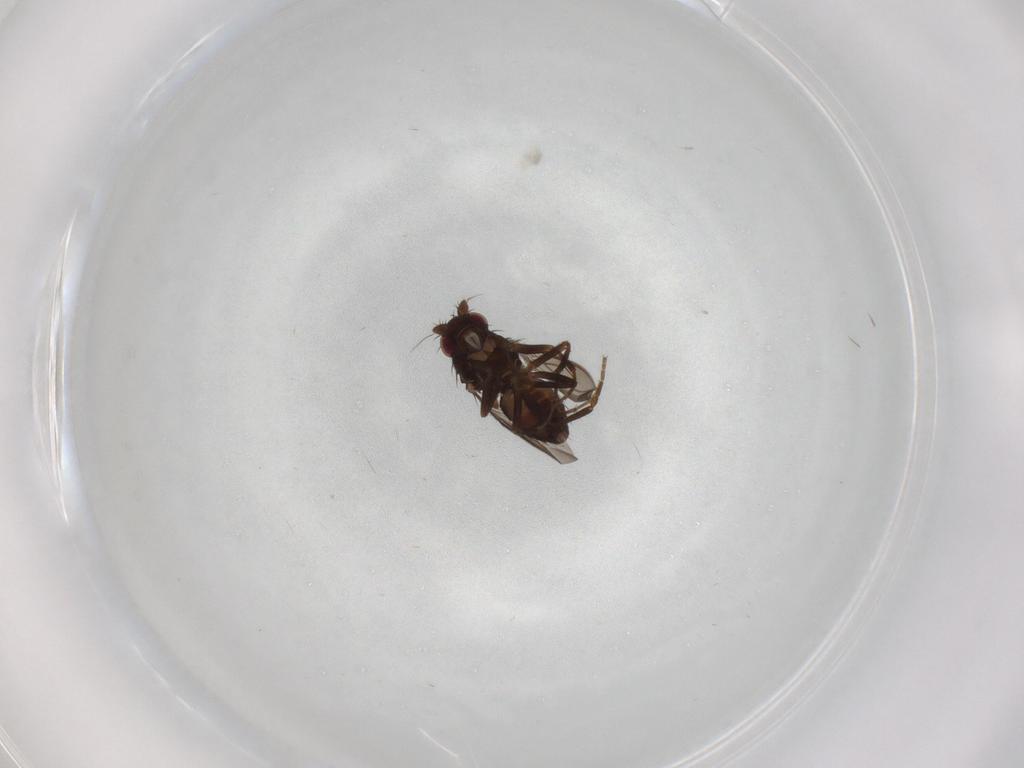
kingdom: Animalia
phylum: Arthropoda
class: Insecta
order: Diptera
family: Sphaeroceridae
